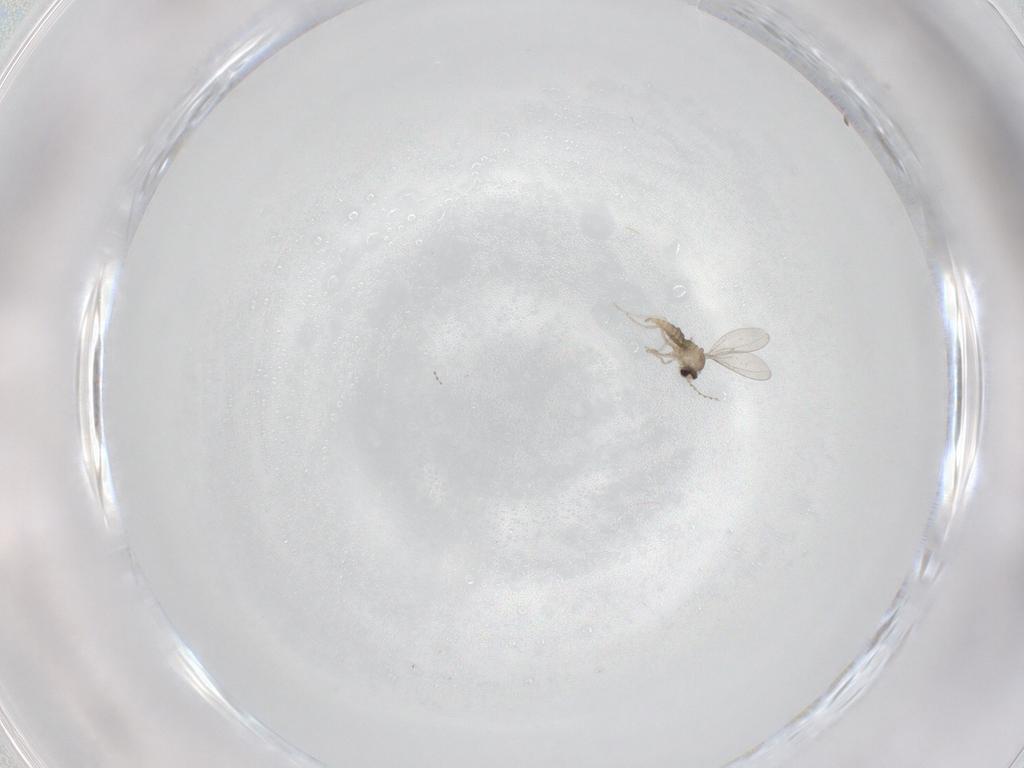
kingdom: Animalia
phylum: Arthropoda
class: Insecta
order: Diptera
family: Cecidomyiidae
